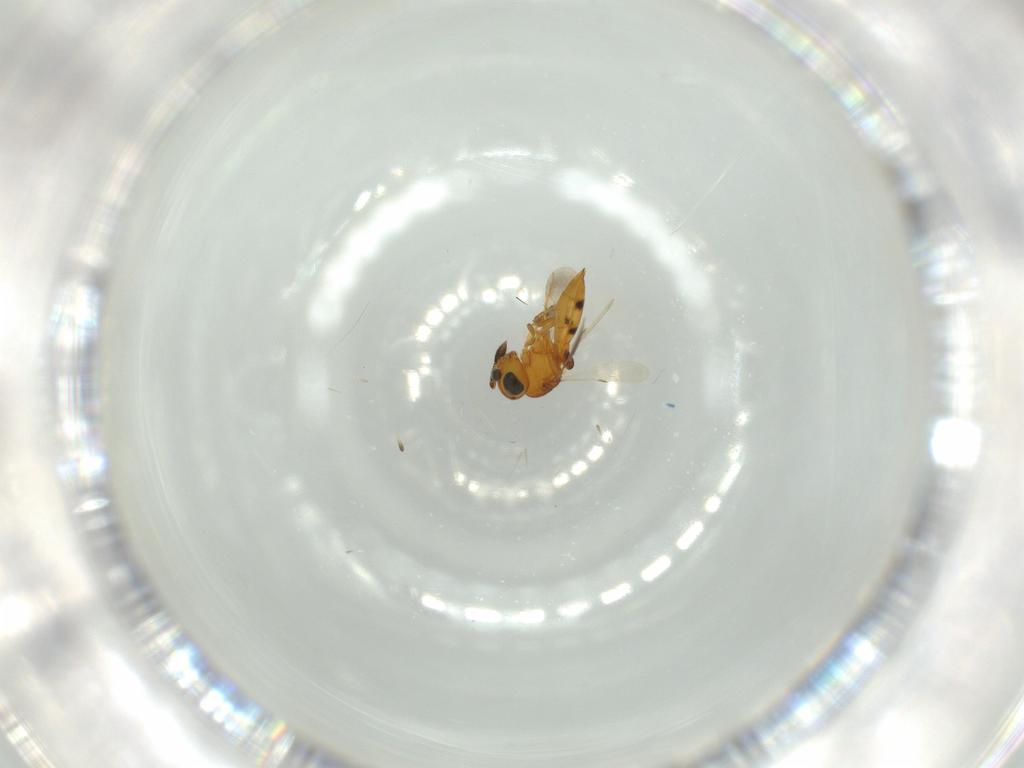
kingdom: Animalia
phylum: Arthropoda
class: Insecta
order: Hymenoptera
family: Scelionidae
